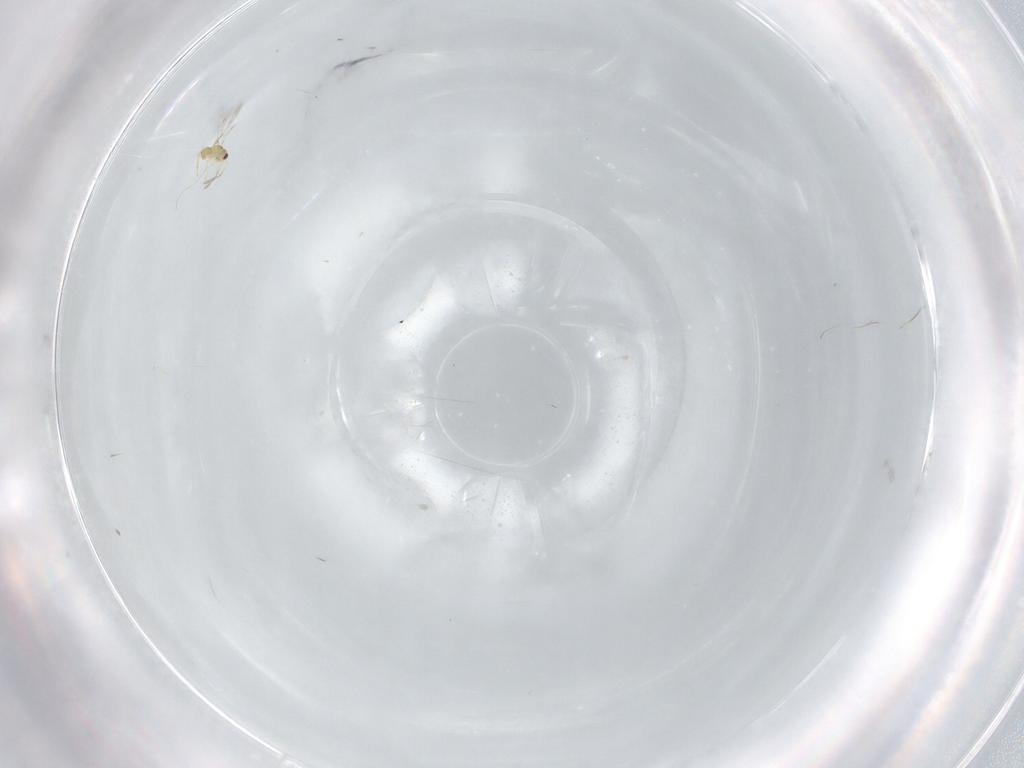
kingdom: Animalia
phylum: Arthropoda
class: Insecta
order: Hymenoptera
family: Mymaridae
